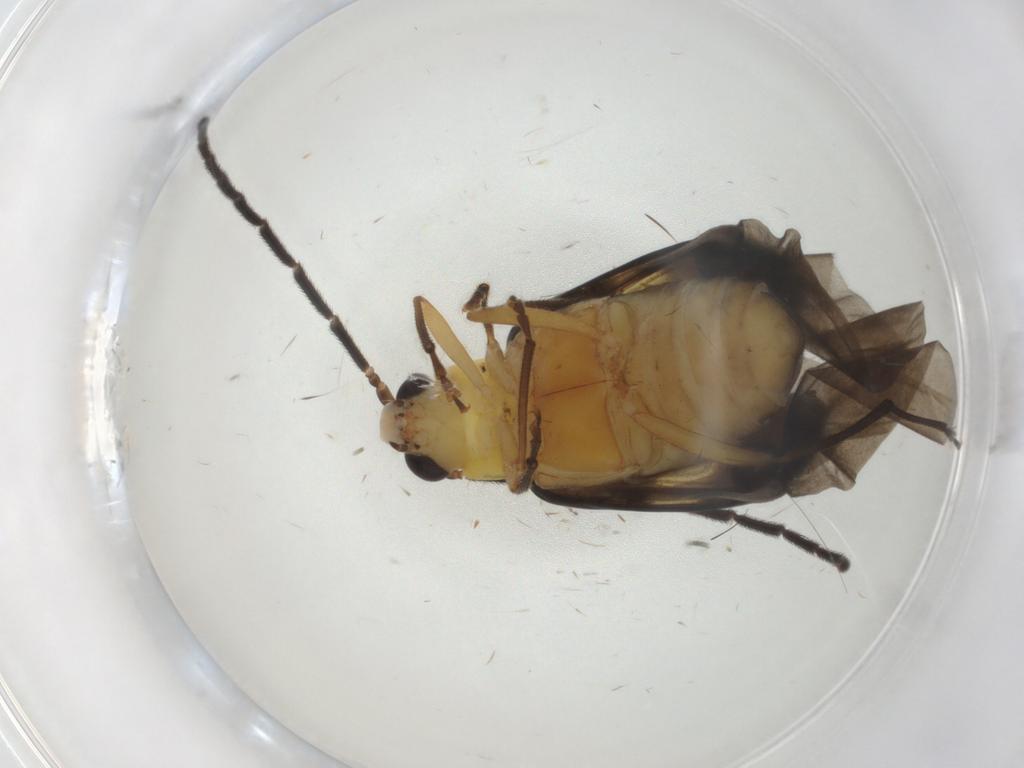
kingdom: Animalia
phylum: Arthropoda
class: Insecta
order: Coleoptera
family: Chrysomelidae
